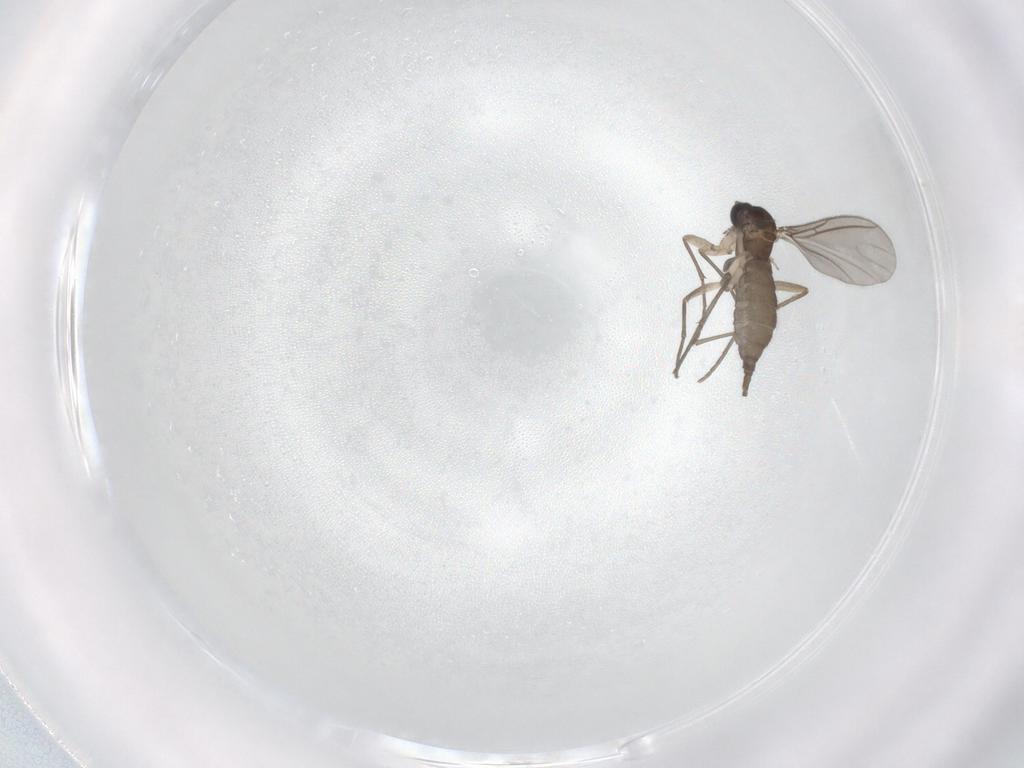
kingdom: Animalia
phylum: Arthropoda
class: Insecta
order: Diptera
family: Sciaridae
